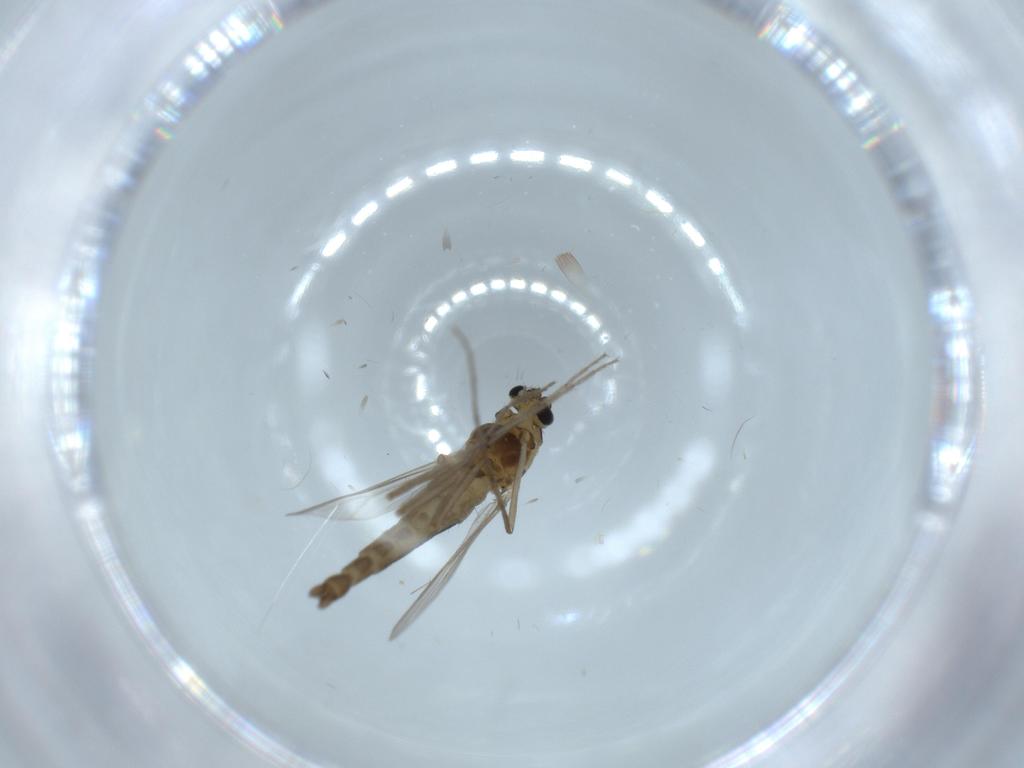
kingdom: Animalia
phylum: Arthropoda
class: Insecta
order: Diptera
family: Chironomidae
